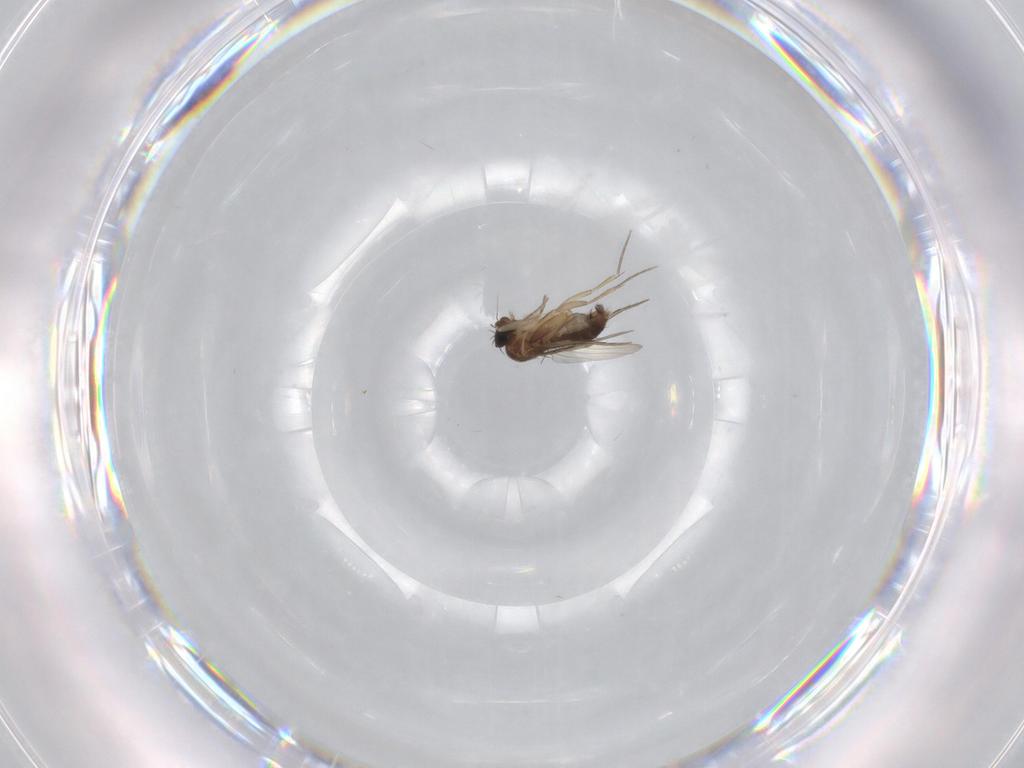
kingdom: Animalia
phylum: Arthropoda
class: Insecta
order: Diptera
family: Phoridae
